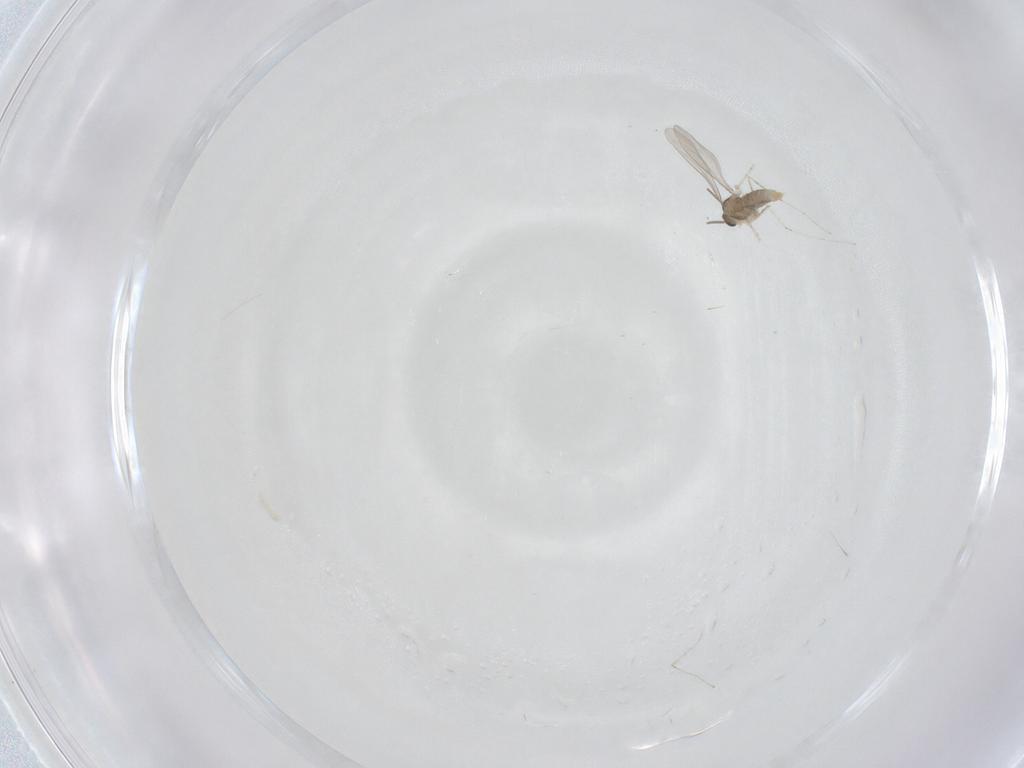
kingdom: Animalia
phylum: Arthropoda
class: Insecta
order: Diptera
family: Cecidomyiidae
